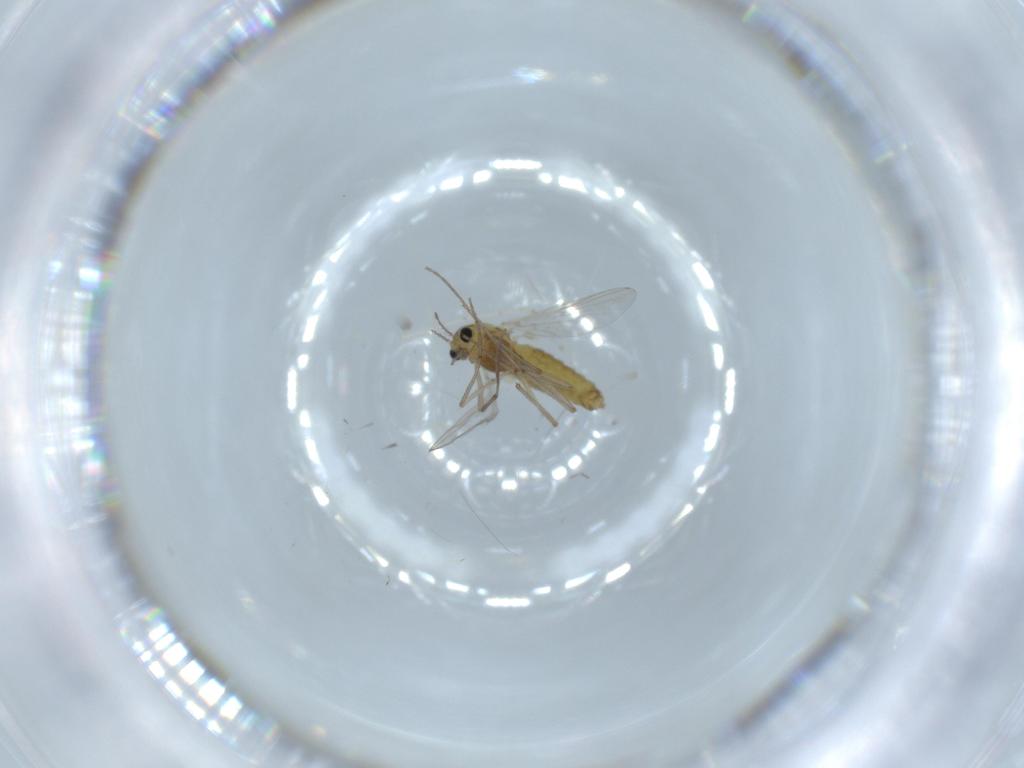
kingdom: Animalia
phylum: Arthropoda
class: Insecta
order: Diptera
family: Chironomidae
